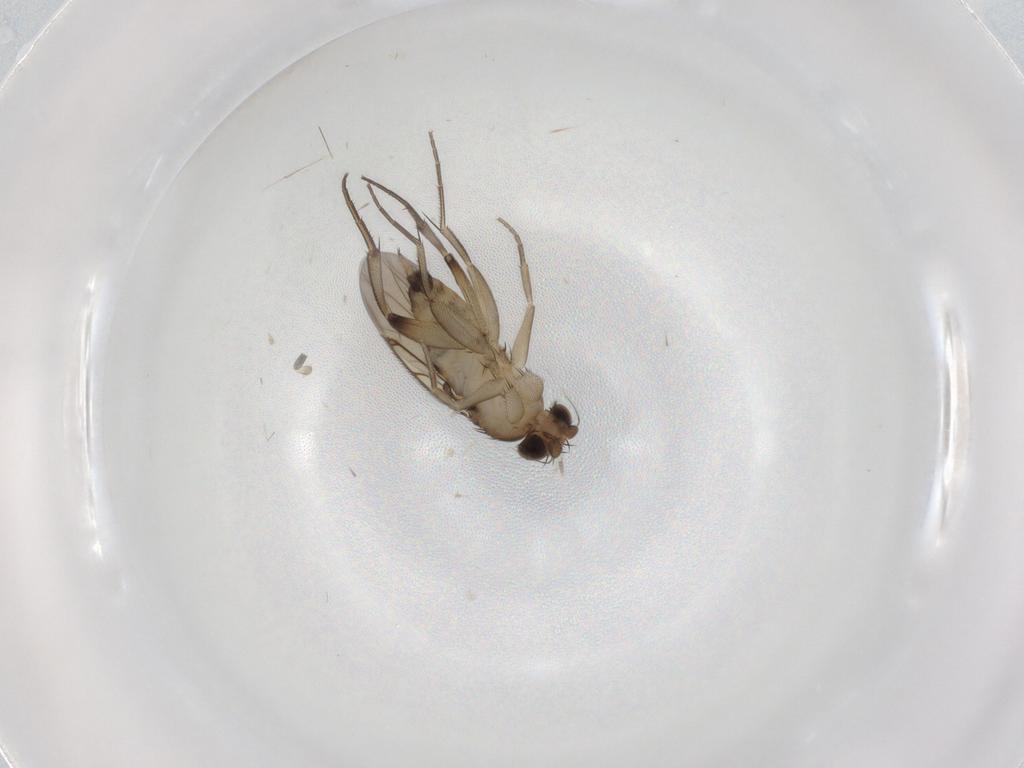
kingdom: Animalia
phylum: Arthropoda
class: Insecta
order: Diptera
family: Phoridae
